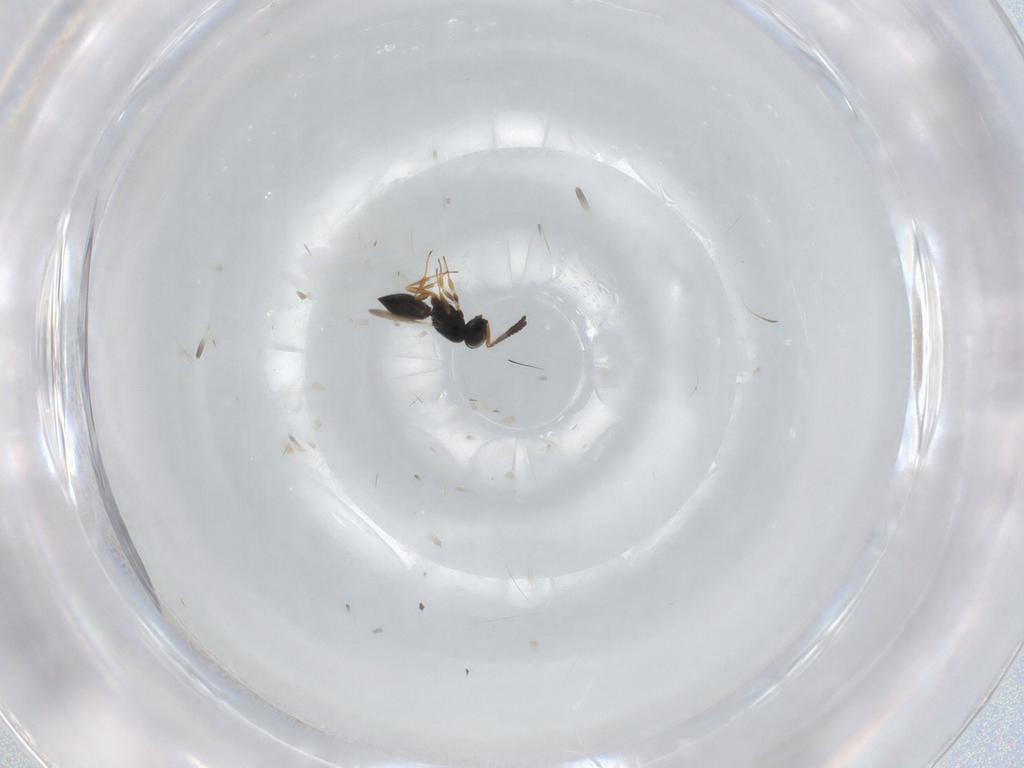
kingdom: Animalia
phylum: Arthropoda
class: Insecta
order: Hymenoptera
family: Scelionidae
